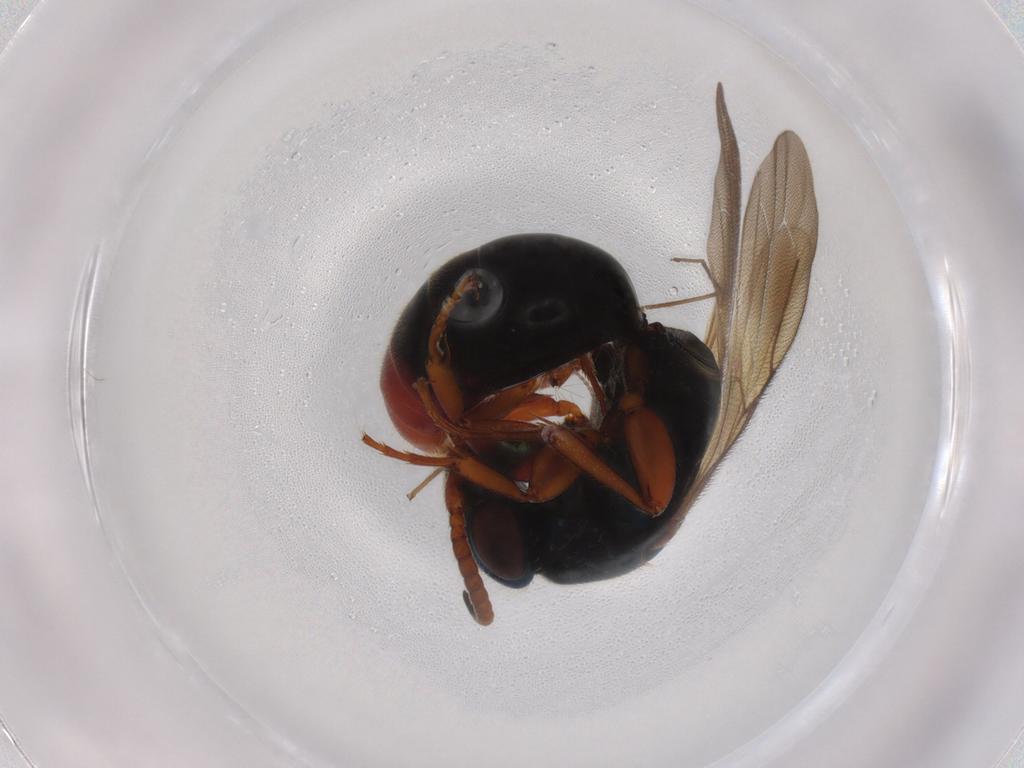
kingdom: Animalia
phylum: Arthropoda
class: Insecta
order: Hymenoptera
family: Bethylidae
